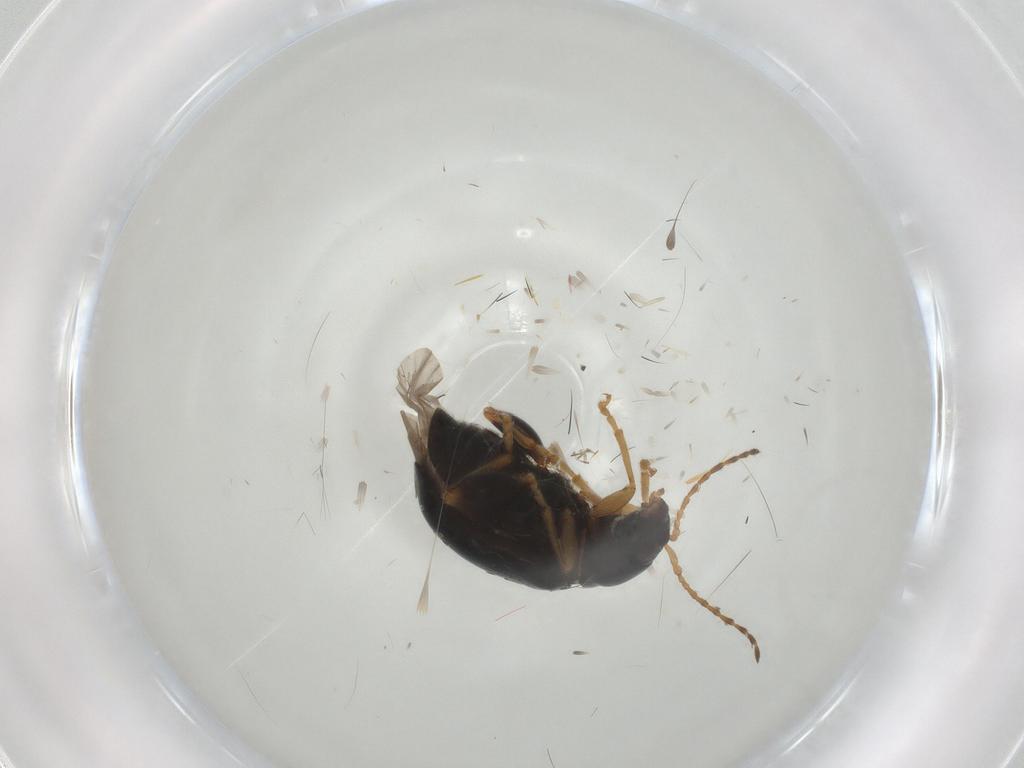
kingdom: Animalia
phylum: Arthropoda
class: Insecta
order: Coleoptera
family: Chrysomelidae
